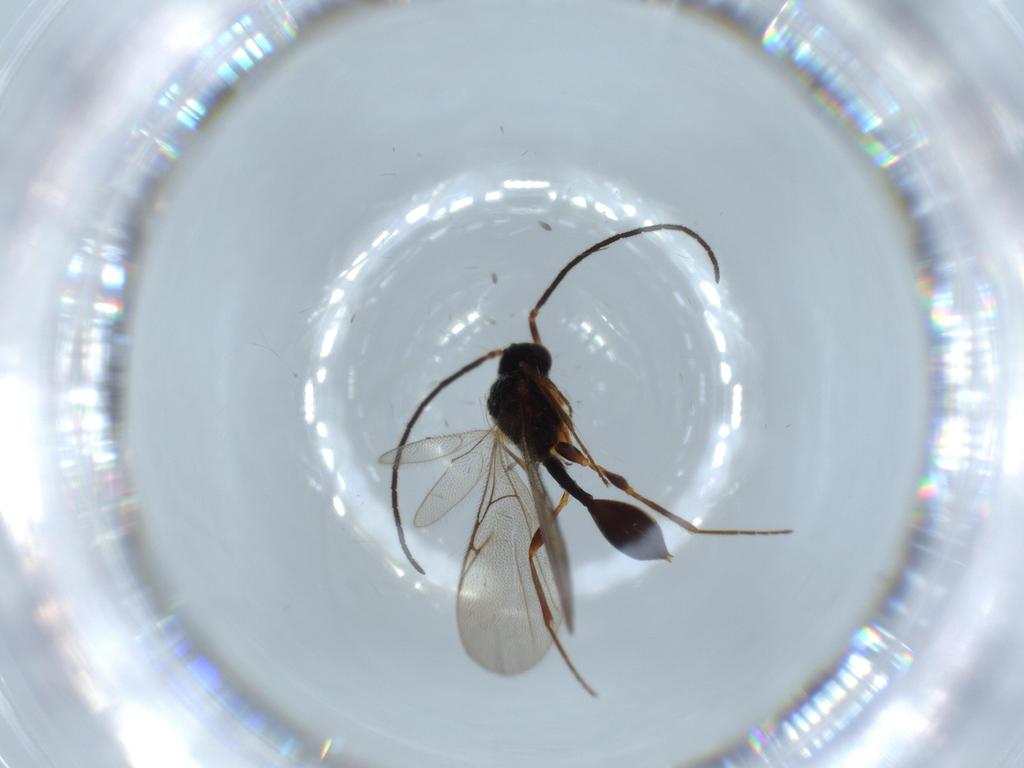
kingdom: Animalia
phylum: Arthropoda
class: Insecta
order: Hymenoptera
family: Diapriidae
